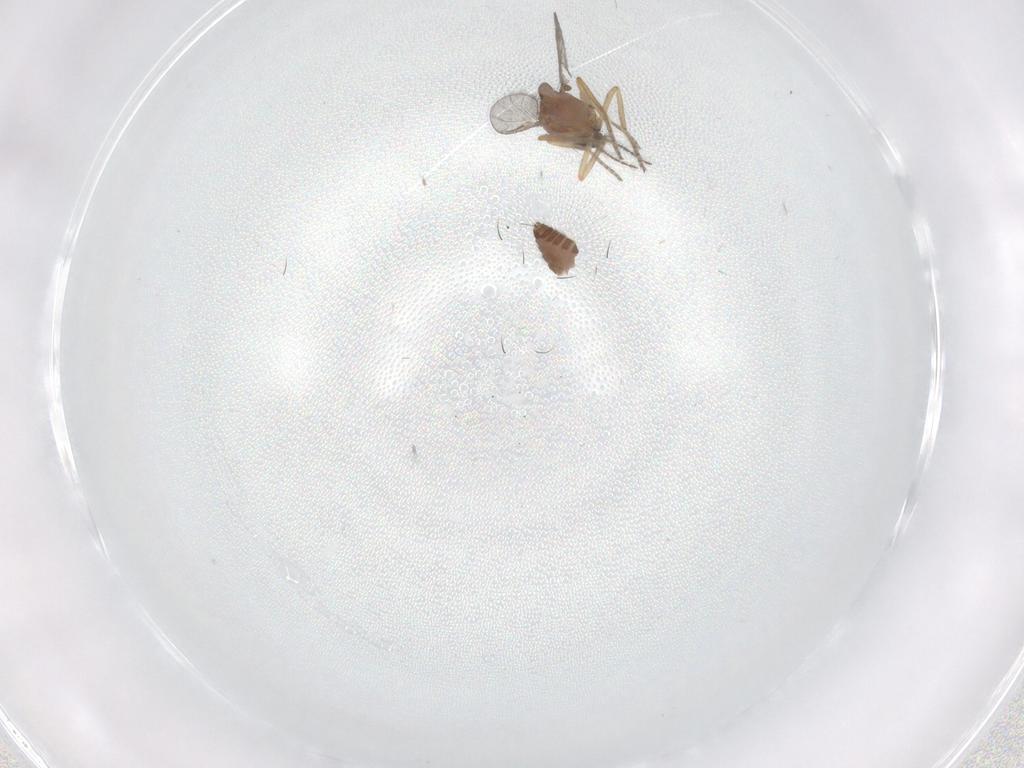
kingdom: Animalia
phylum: Arthropoda
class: Insecta
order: Diptera
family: Ceratopogonidae
